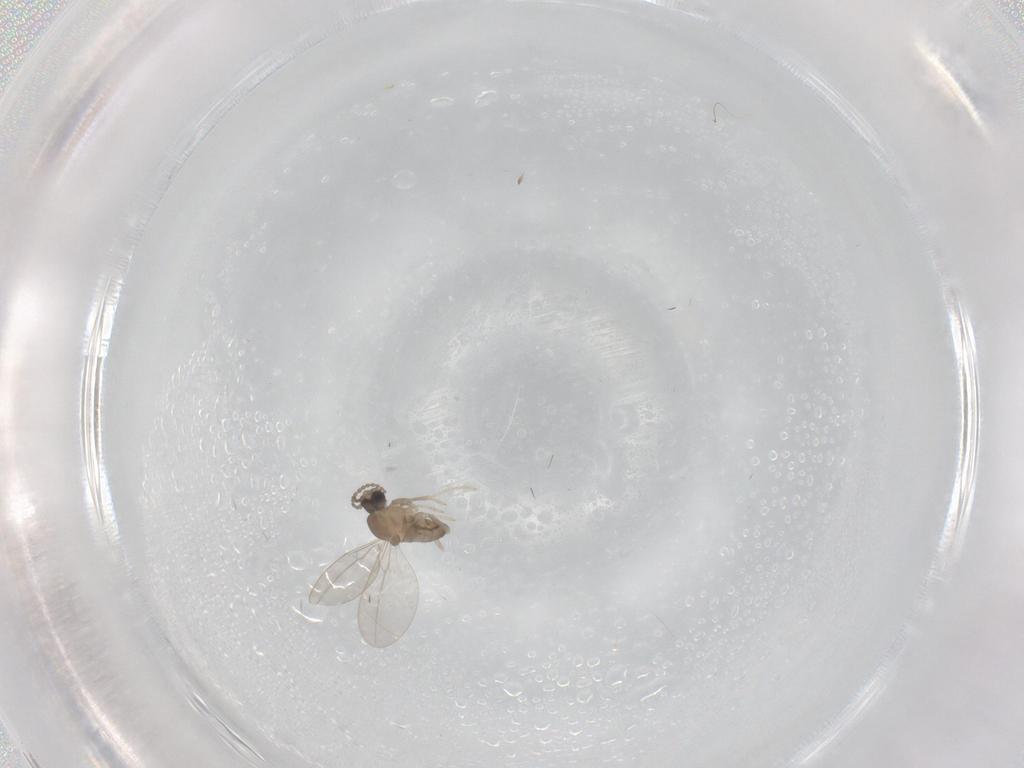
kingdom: Animalia
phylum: Arthropoda
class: Insecta
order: Diptera
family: Cecidomyiidae
